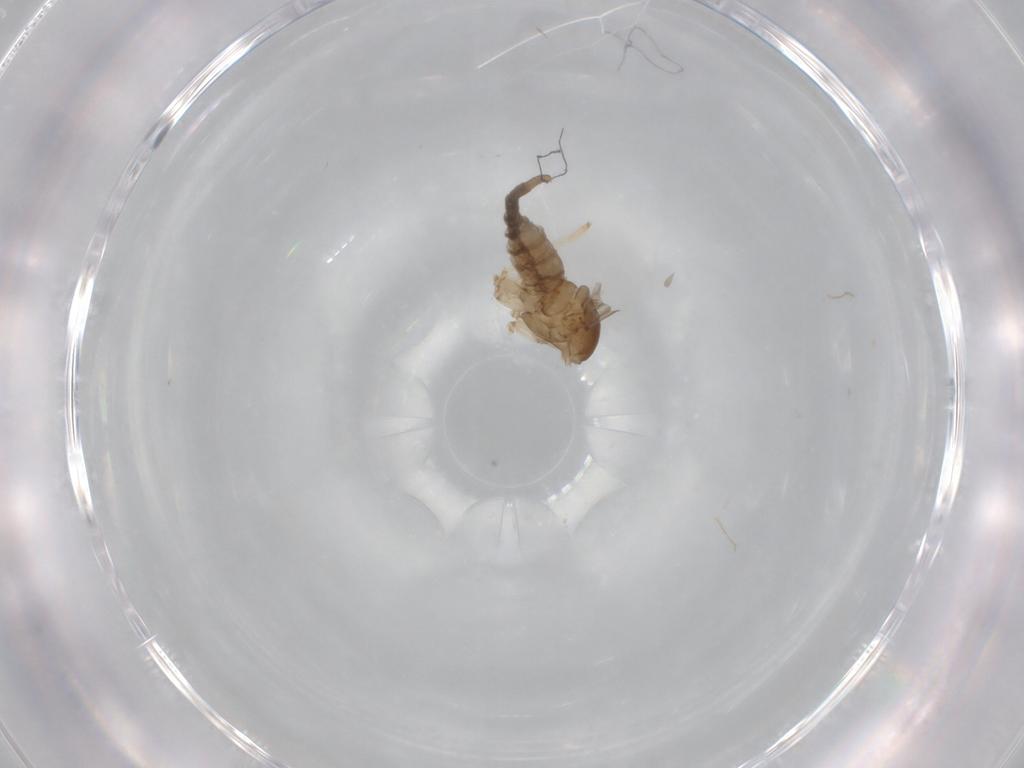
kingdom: Animalia
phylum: Arthropoda
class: Insecta
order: Diptera
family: Cecidomyiidae
